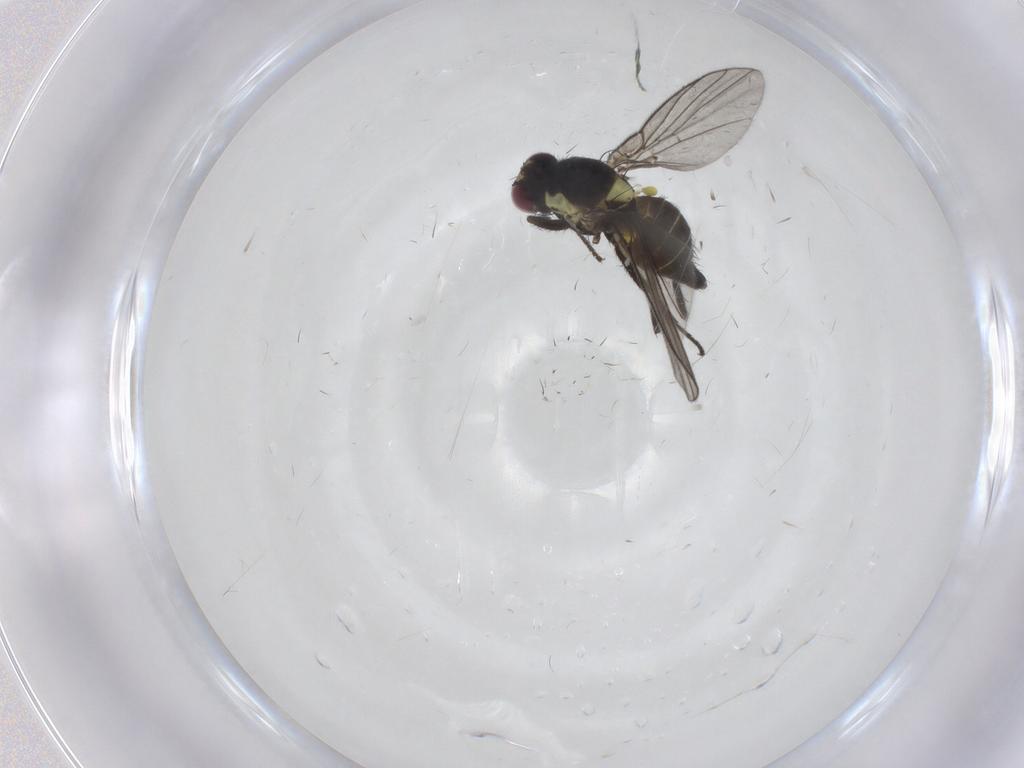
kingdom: Animalia
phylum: Arthropoda
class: Insecta
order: Diptera
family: Agromyzidae
